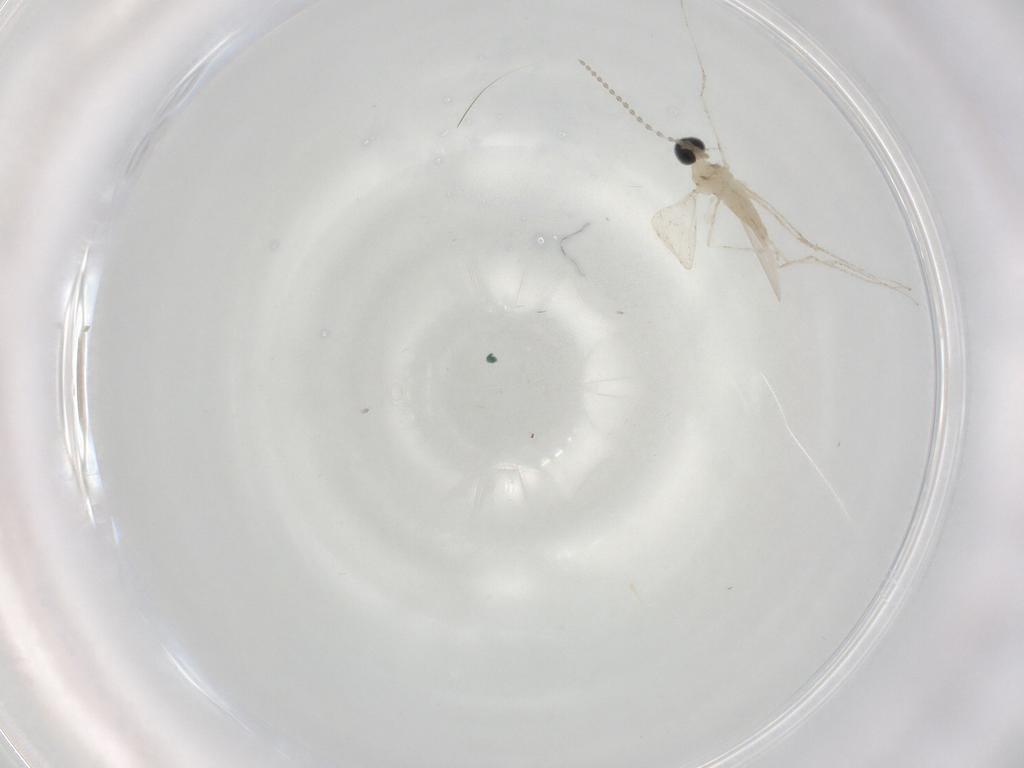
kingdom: Animalia
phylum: Arthropoda
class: Insecta
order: Diptera
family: Cecidomyiidae
